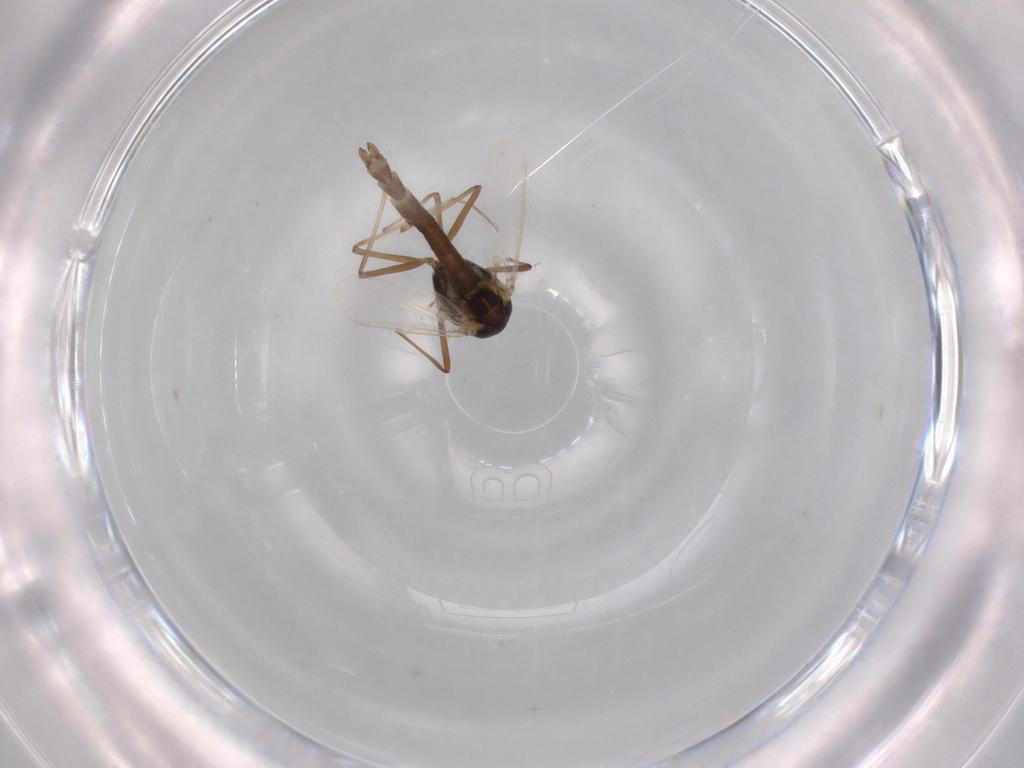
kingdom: Animalia
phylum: Arthropoda
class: Insecta
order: Diptera
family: Chironomidae
